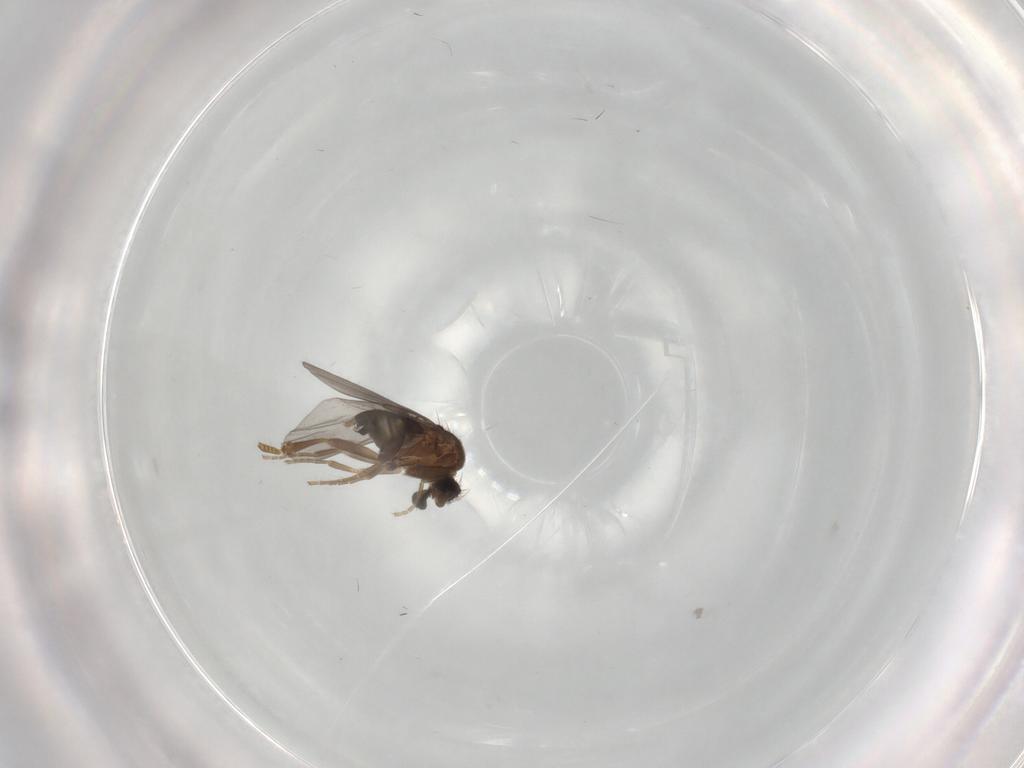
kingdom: Animalia
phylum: Arthropoda
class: Insecta
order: Diptera
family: Phoridae
